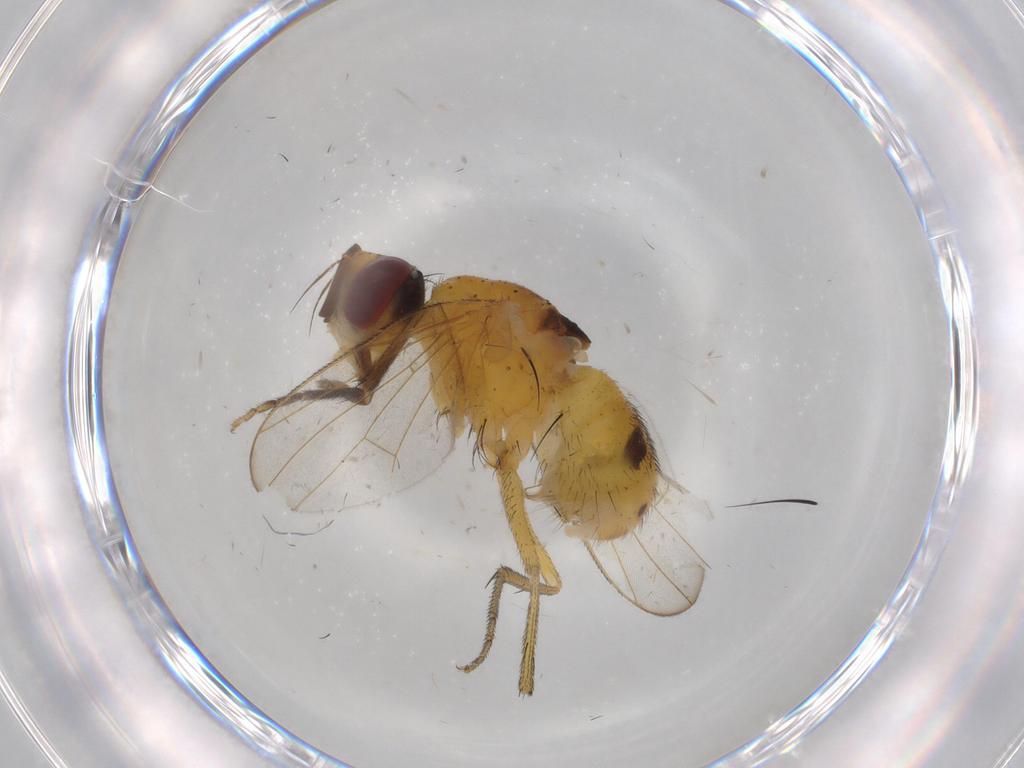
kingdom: Animalia
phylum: Arthropoda
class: Insecta
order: Diptera
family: Muscidae
